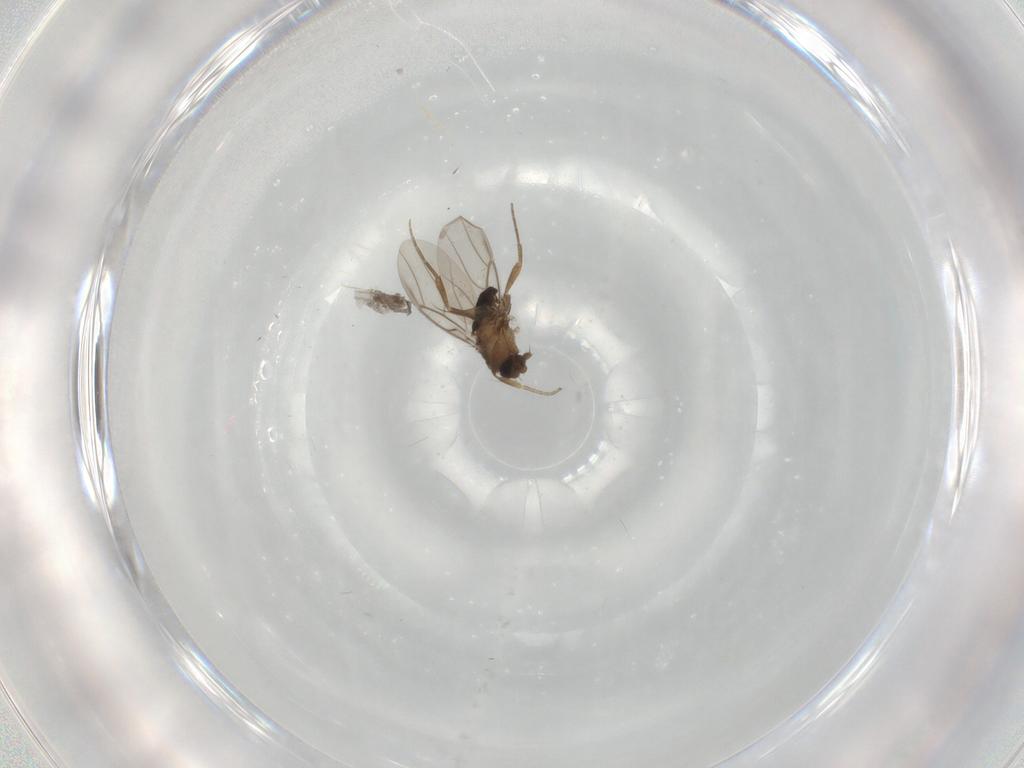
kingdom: Animalia
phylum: Arthropoda
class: Insecta
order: Diptera
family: Phoridae
